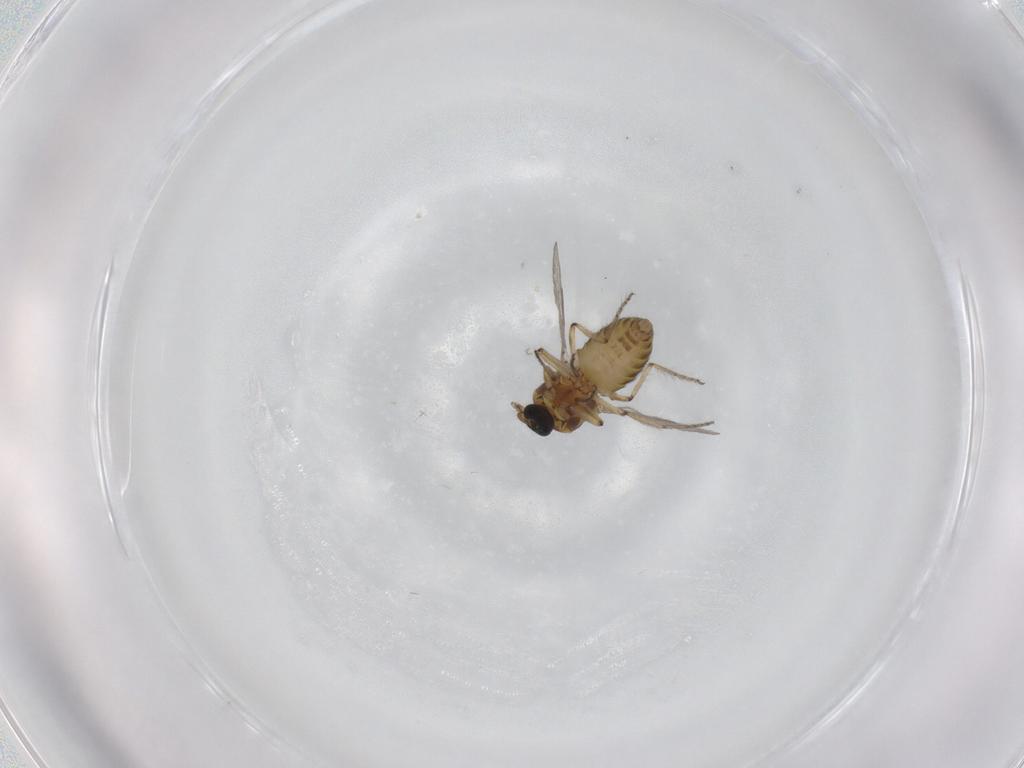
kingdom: Animalia
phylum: Arthropoda
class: Insecta
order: Diptera
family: Ceratopogonidae
